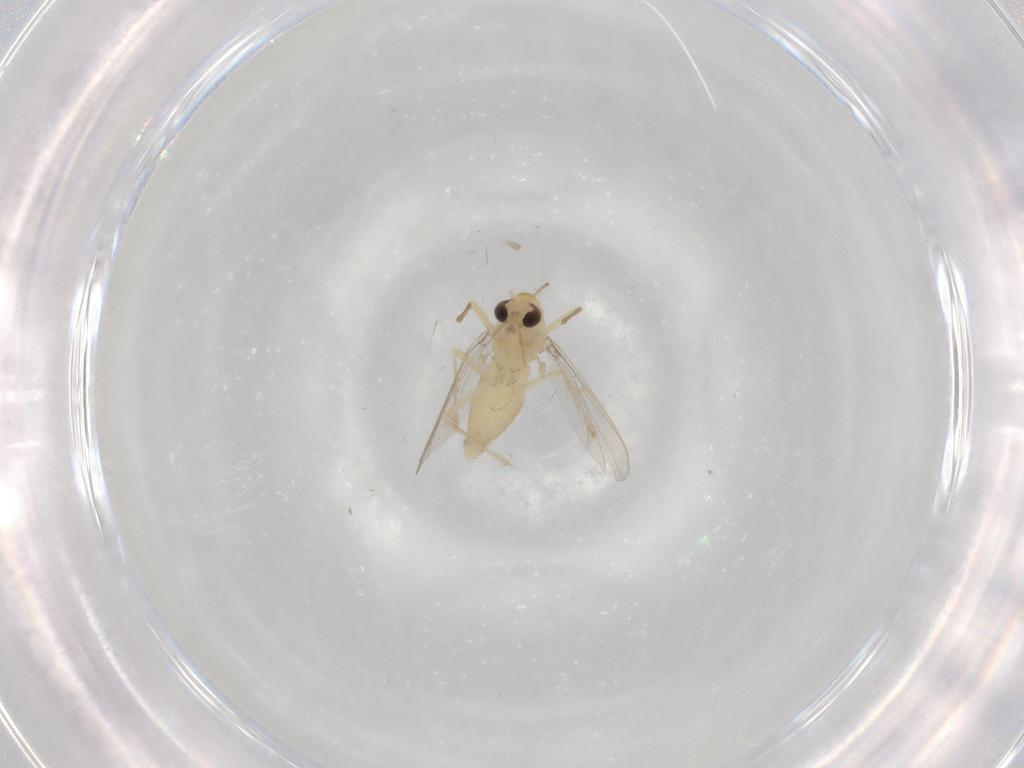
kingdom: Animalia
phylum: Arthropoda
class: Insecta
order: Diptera
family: Chironomidae
